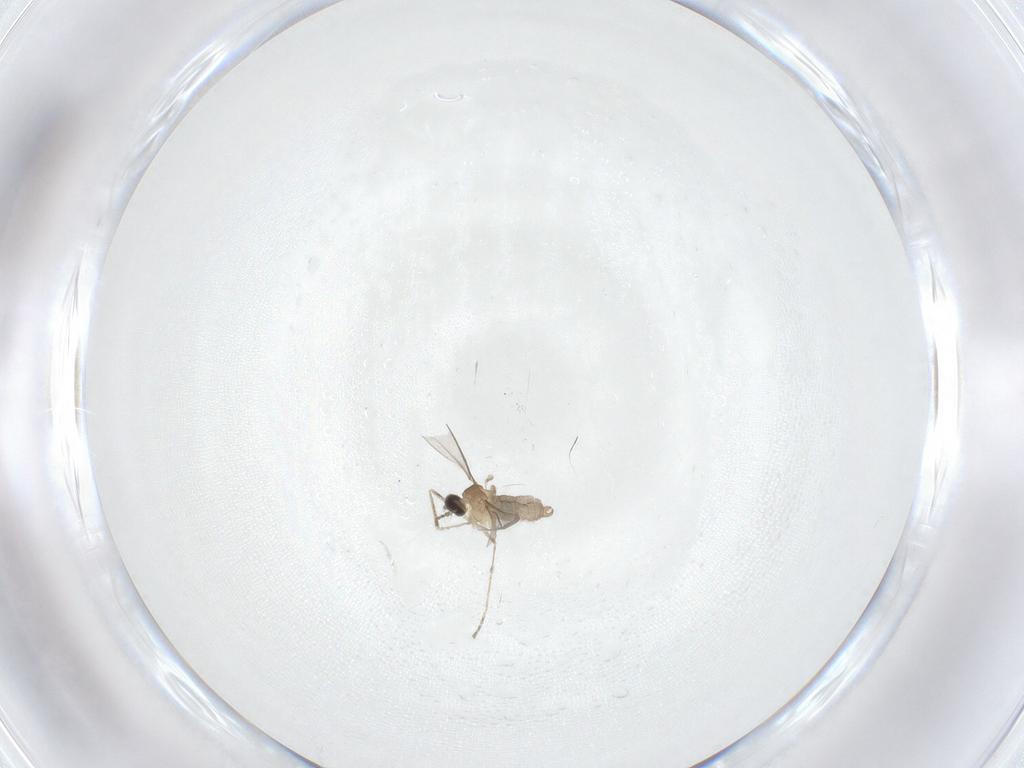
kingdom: Animalia
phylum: Arthropoda
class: Insecta
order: Diptera
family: Cecidomyiidae
